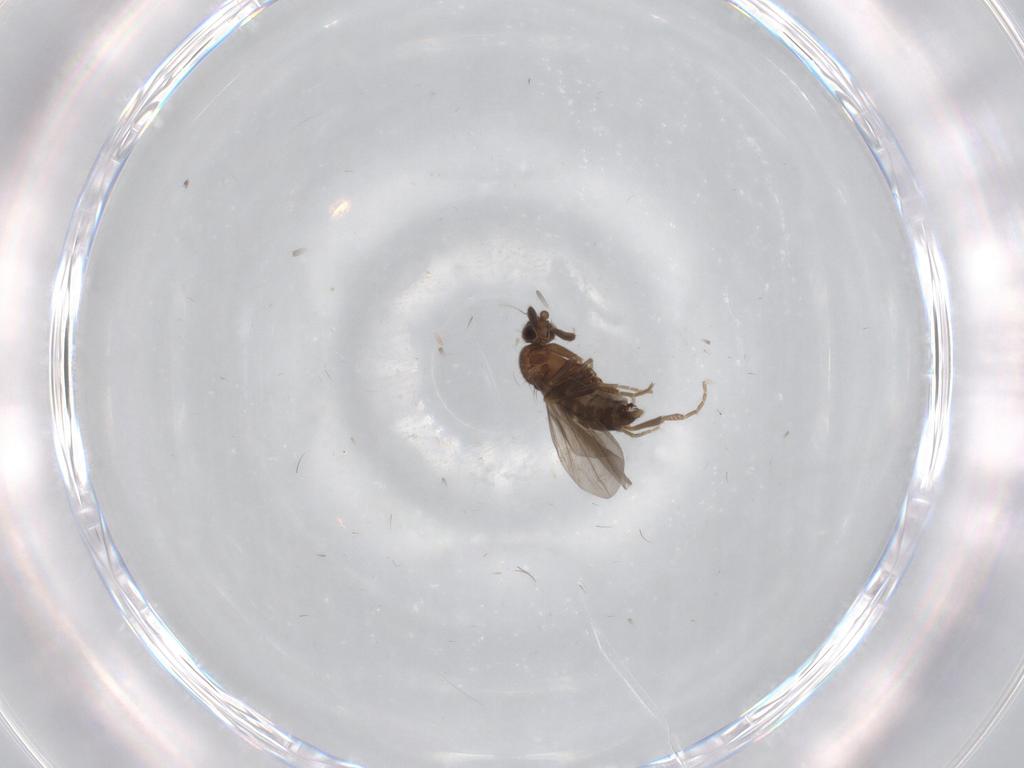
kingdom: Animalia
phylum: Arthropoda
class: Insecta
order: Diptera
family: Phoridae
